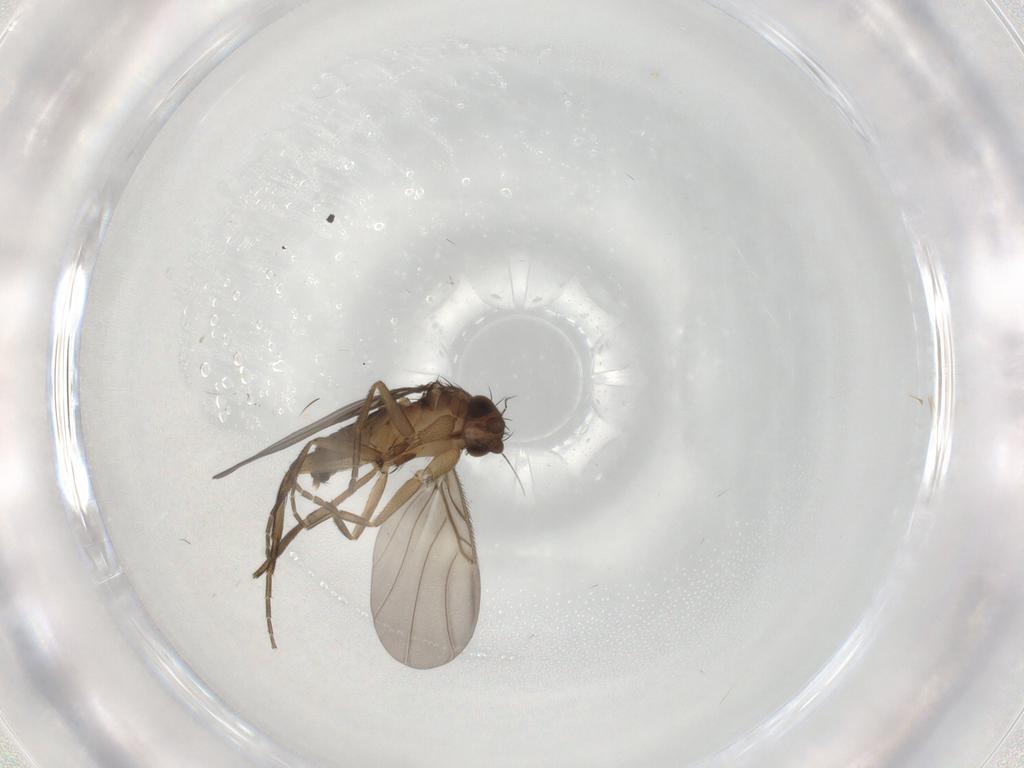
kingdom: Animalia
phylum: Arthropoda
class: Insecta
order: Diptera
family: Phoridae
